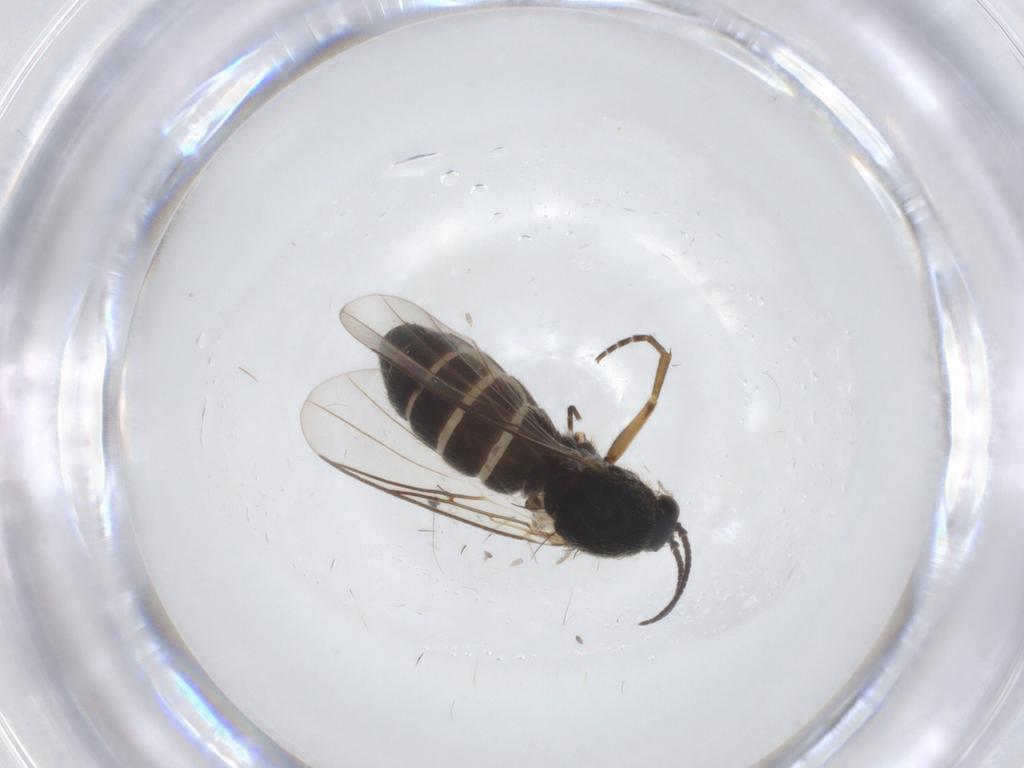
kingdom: Animalia
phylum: Arthropoda
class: Insecta
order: Diptera
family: Mycetophilidae
